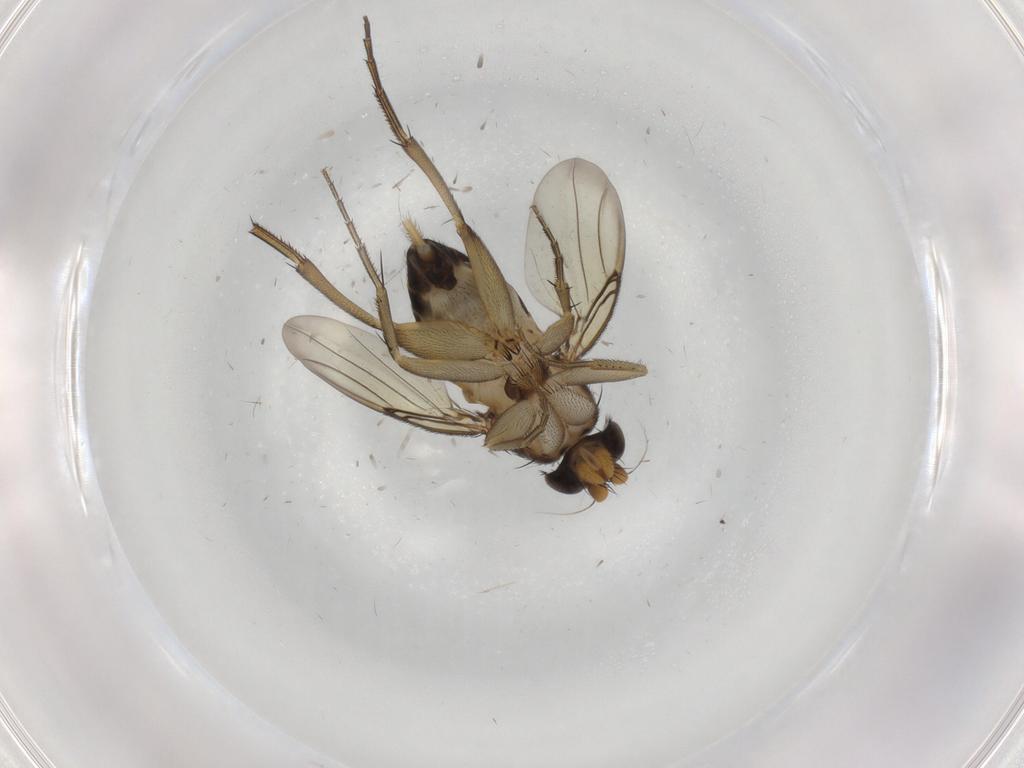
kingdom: Animalia
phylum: Arthropoda
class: Insecta
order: Diptera
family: Phoridae
